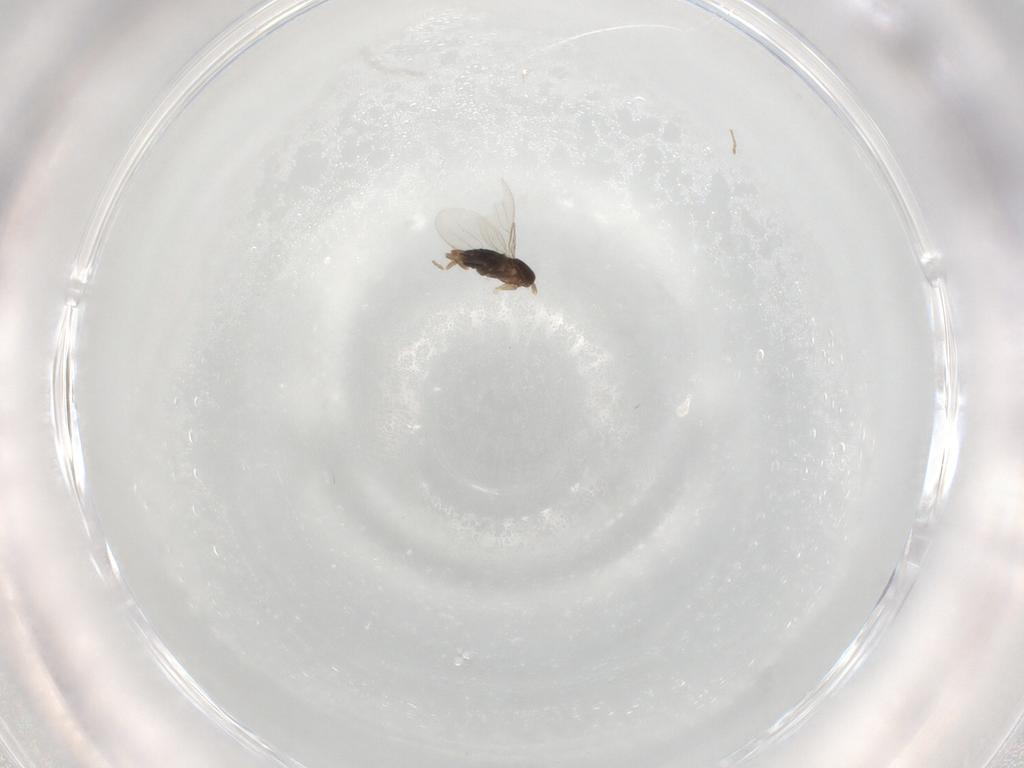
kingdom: Animalia
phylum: Arthropoda
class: Insecta
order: Diptera
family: Phoridae
